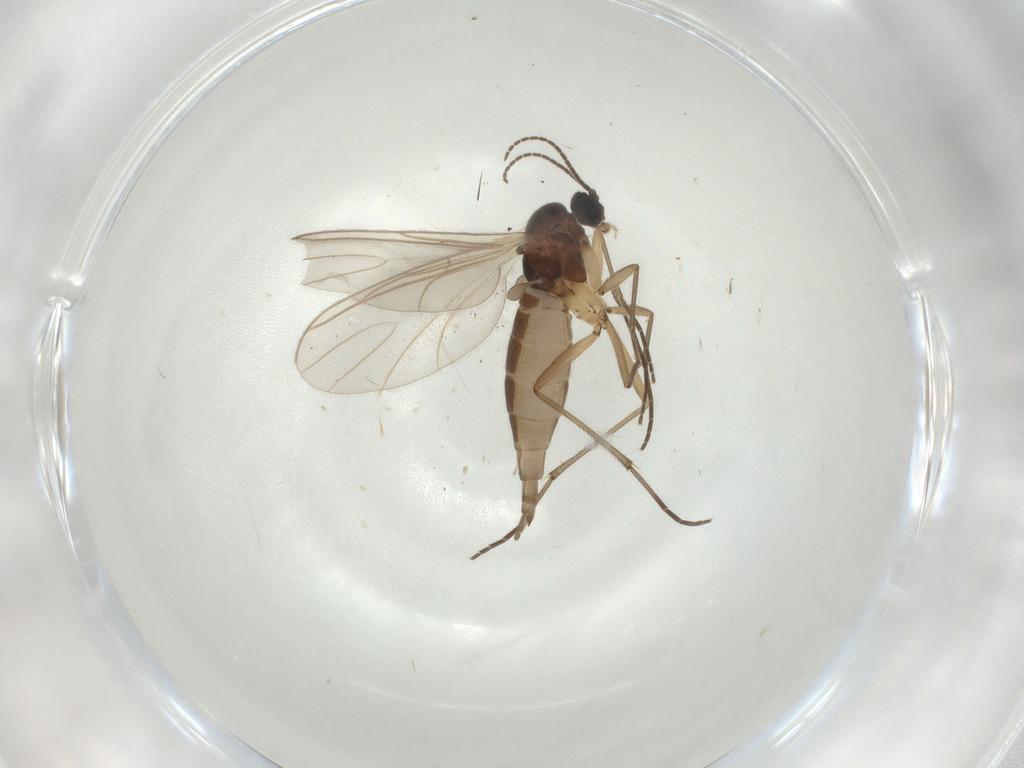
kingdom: Animalia
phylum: Arthropoda
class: Insecta
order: Diptera
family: Sciaridae
